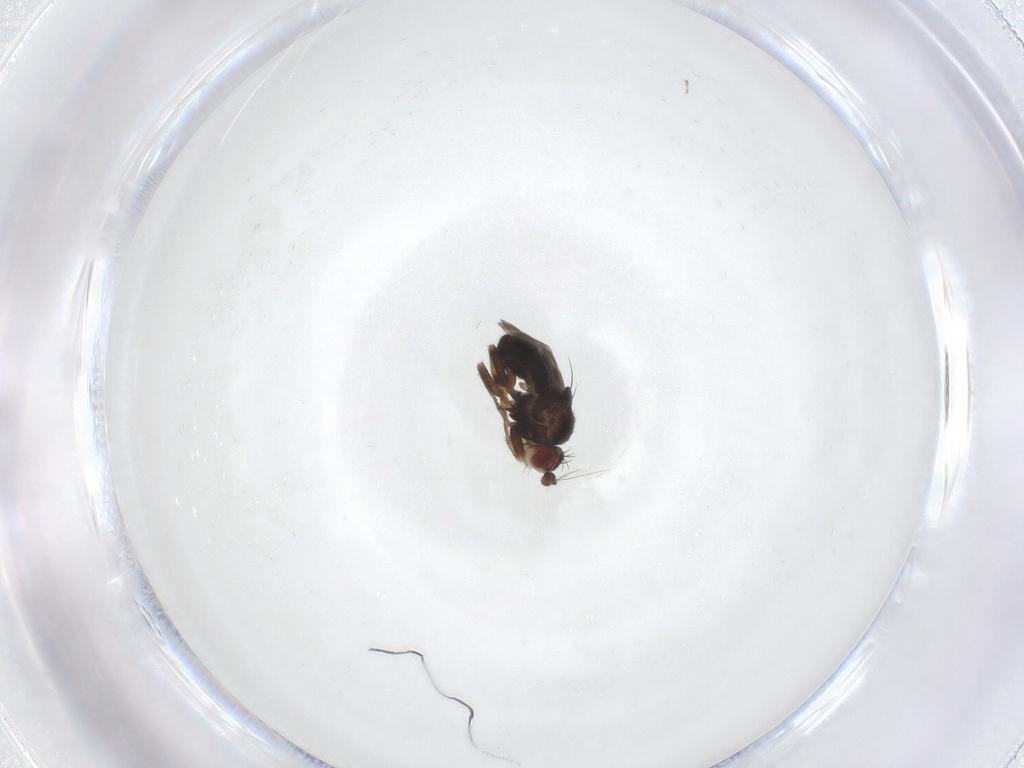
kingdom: Animalia
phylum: Arthropoda
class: Insecta
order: Diptera
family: Sphaeroceridae
